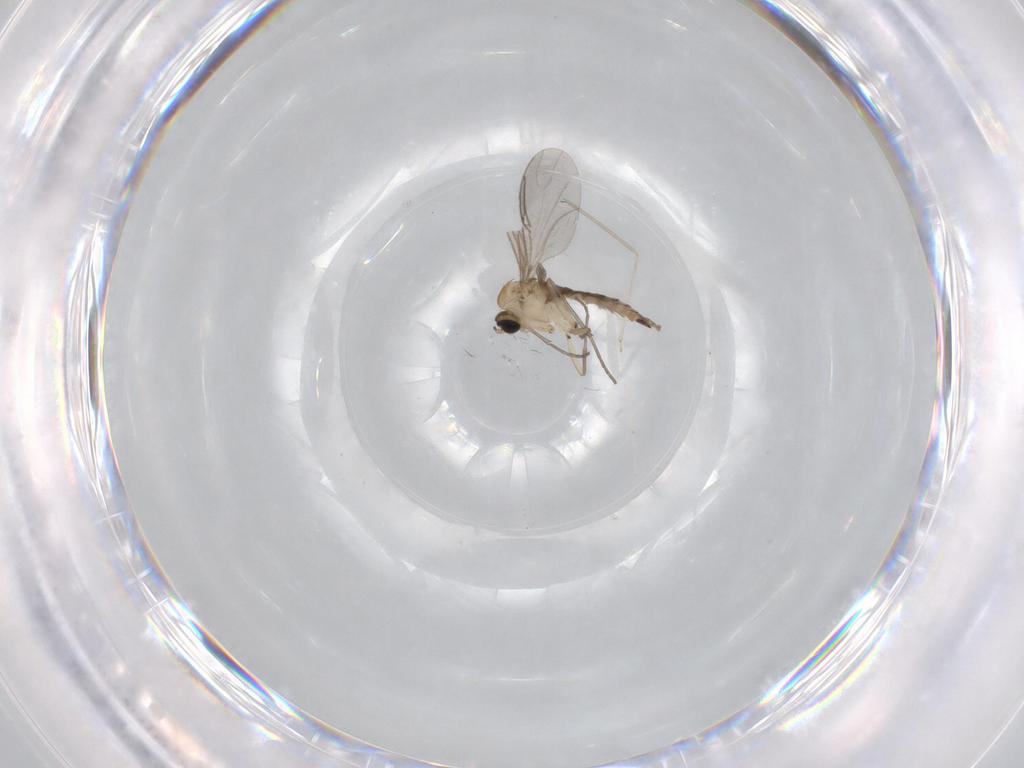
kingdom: Animalia
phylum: Arthropoda
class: Insecta
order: Diptera
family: Sciaridae
